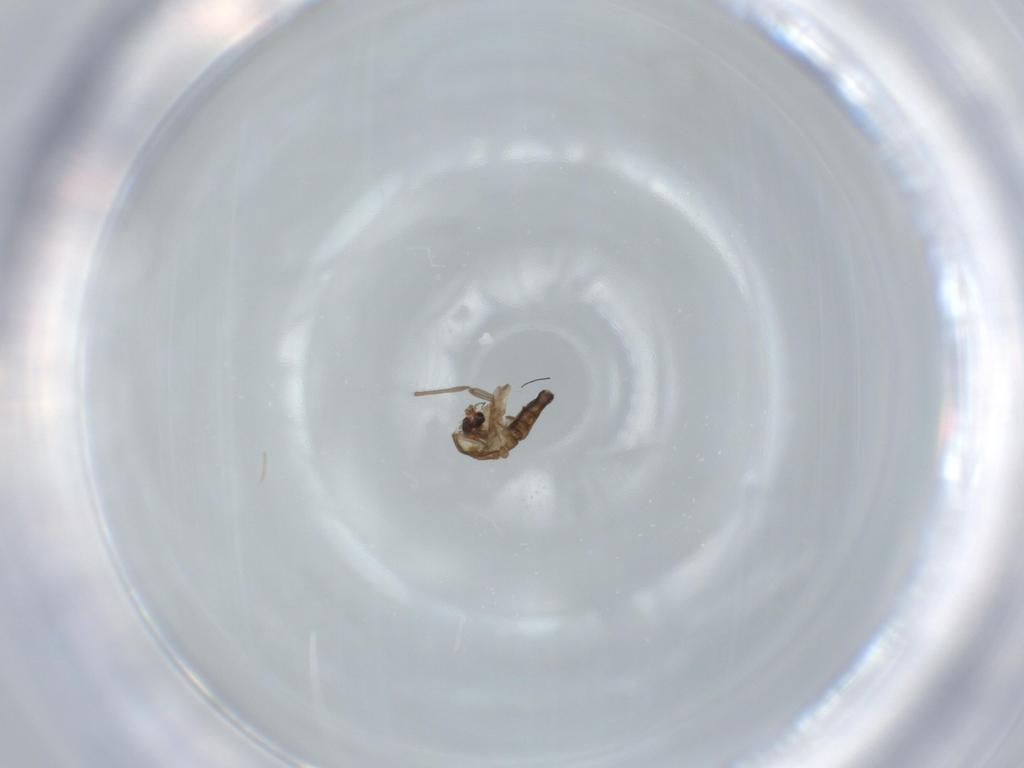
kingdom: Animalia
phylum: Arthropoda
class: Insecta
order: Diptera
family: Chironomidae
